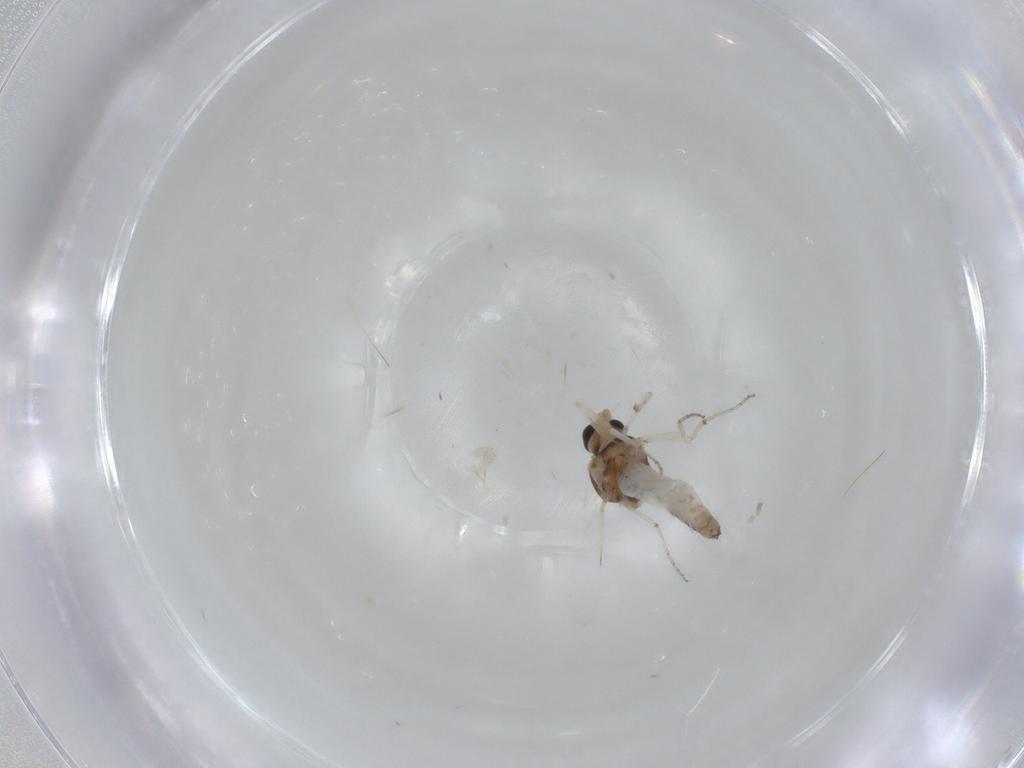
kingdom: Animalia
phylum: Arthropoda
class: Insecta
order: Diptera
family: Ceratopogonidae
